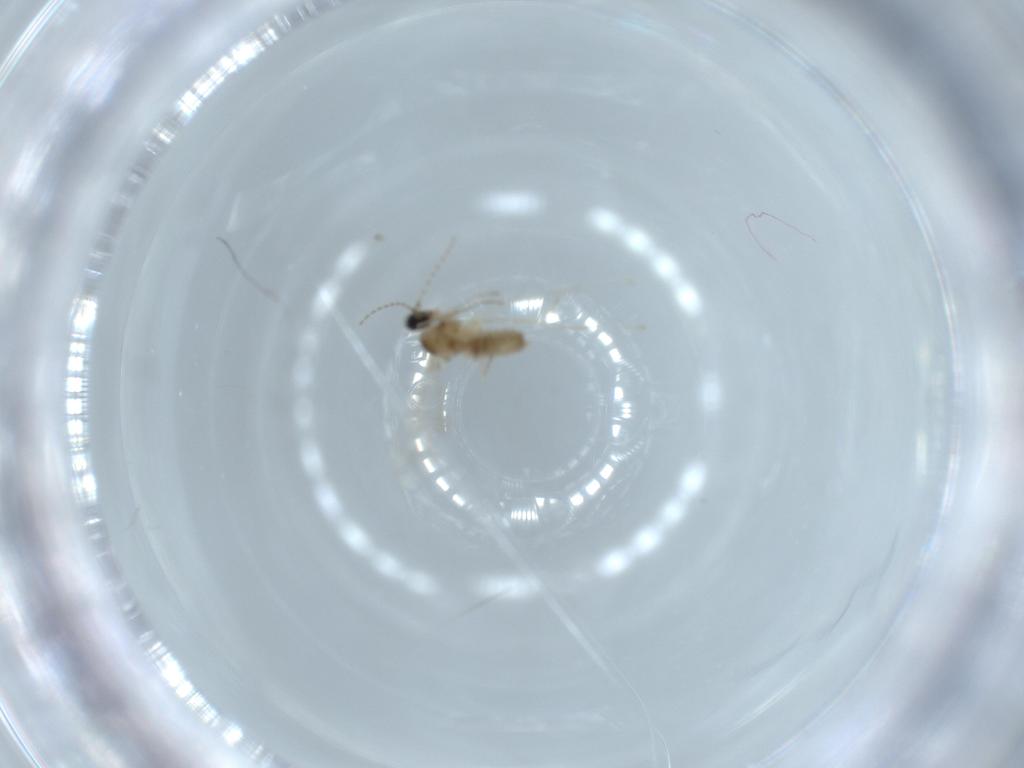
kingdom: Animalia
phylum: Arthropoda
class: Insecta
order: Diptera
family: Cecidomyiidae
